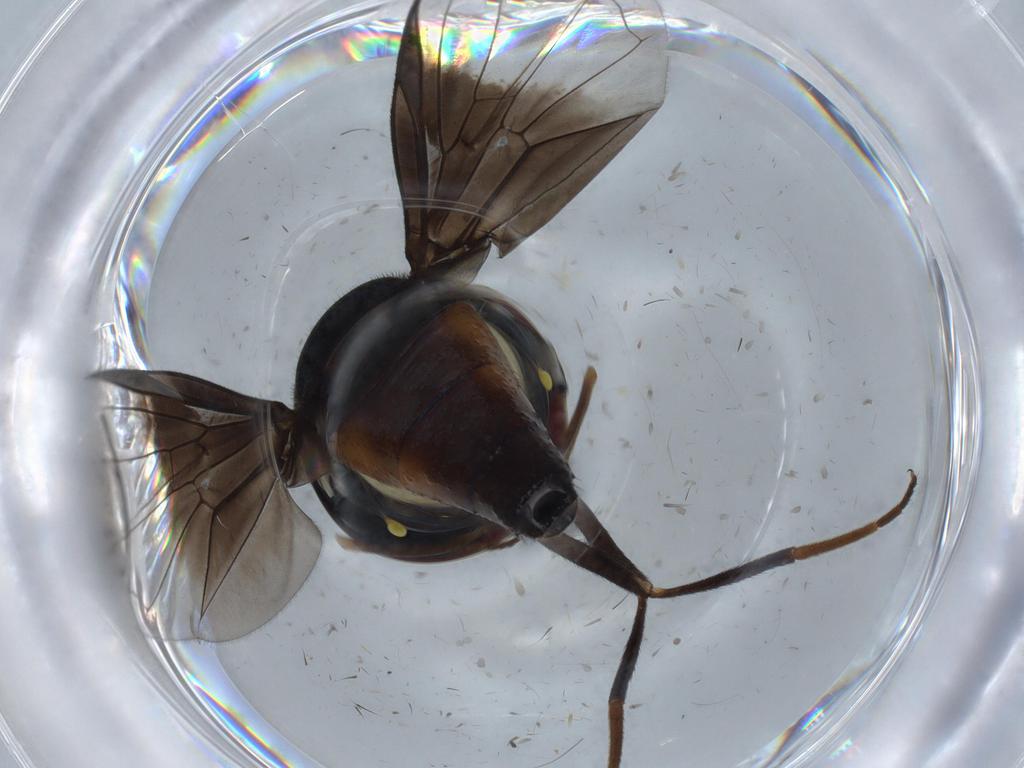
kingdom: Animalia
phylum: Arthropoda
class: Insecta
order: Diptera
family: Syrphidae
